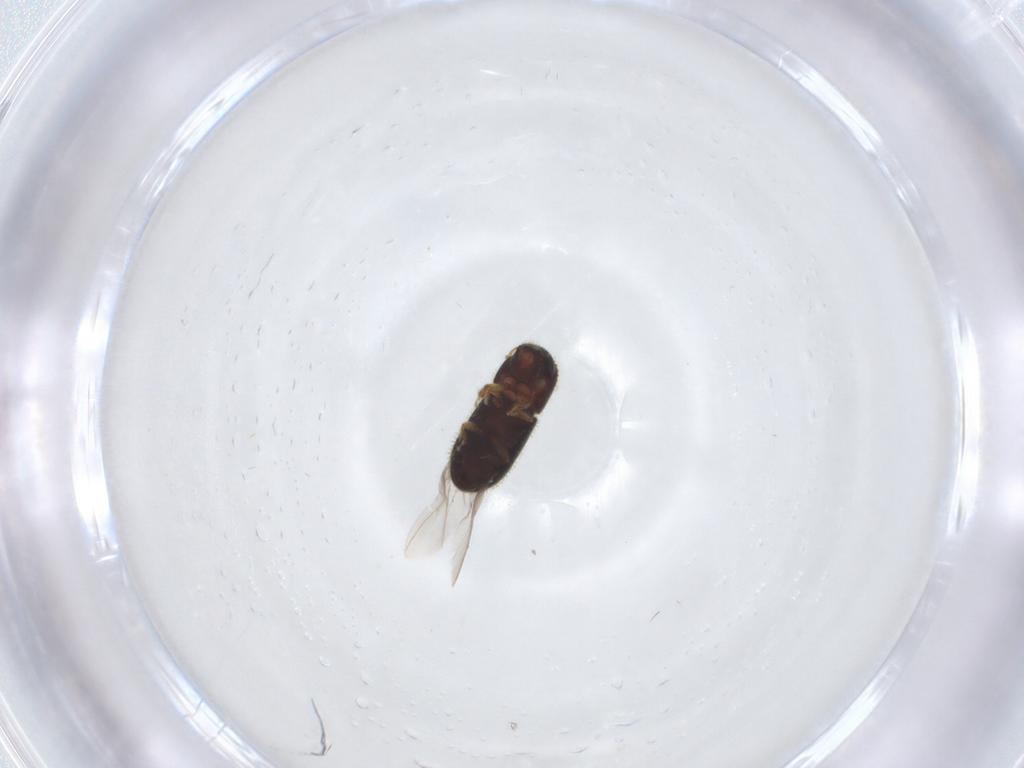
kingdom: Animalia
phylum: Arthropoda
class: Insecta
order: Coleoptera
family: Curculionidae
